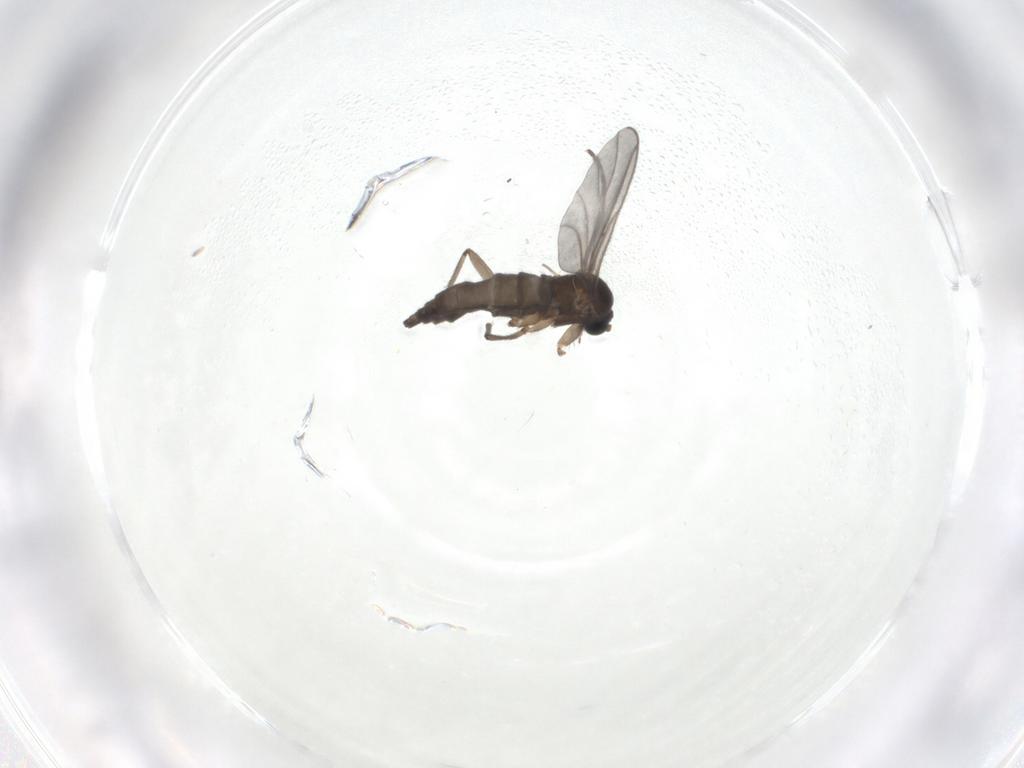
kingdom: Animalia
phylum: Arthropoda
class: Insecta
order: Diptera
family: Sciaridae
